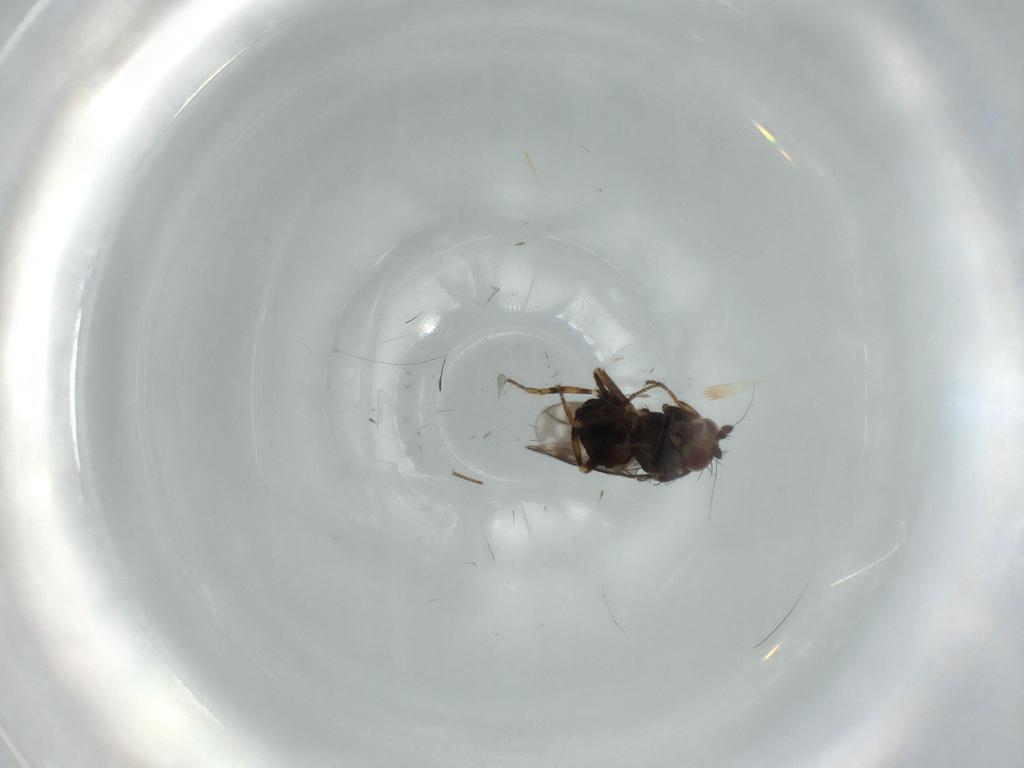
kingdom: Animalia
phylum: Arthropoda
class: Insecta
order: Diptera
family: Sphaeroceridae
